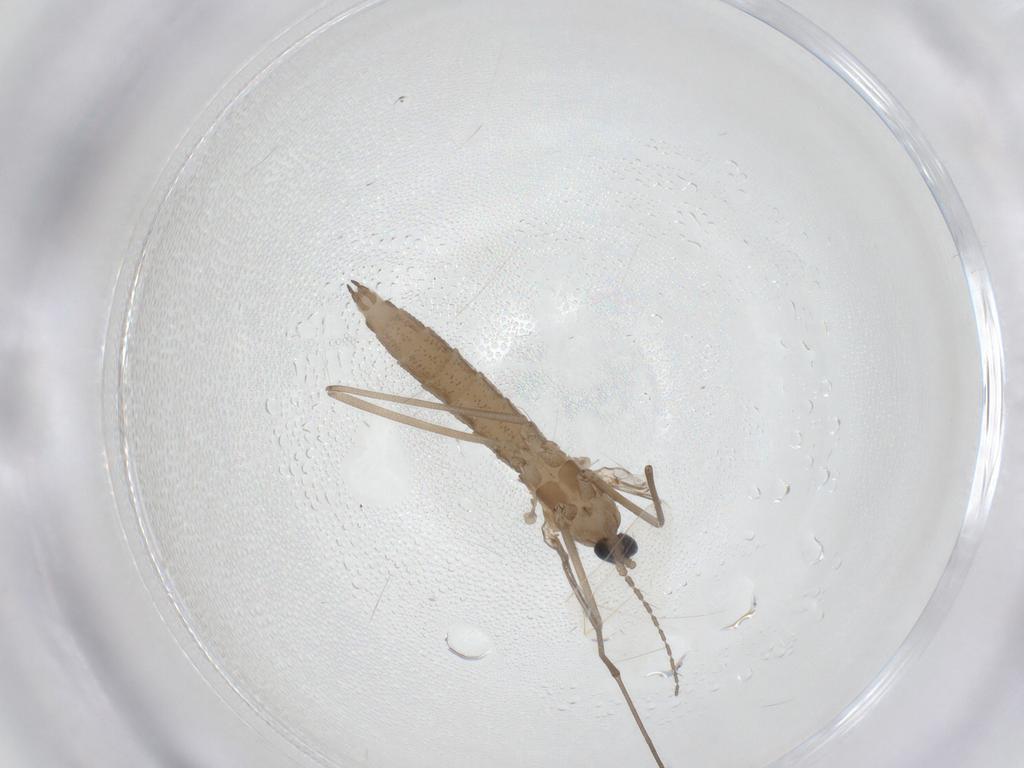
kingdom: Animalia
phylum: Arthropoda
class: Insecta
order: Diptera
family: Cecidomyiidae
